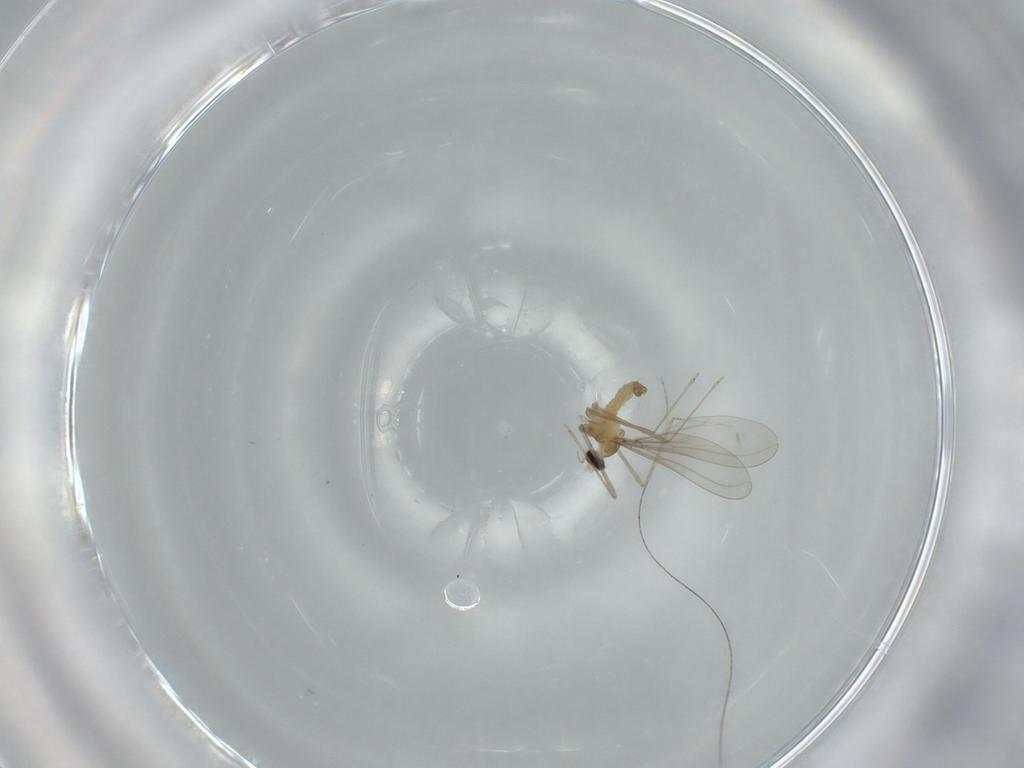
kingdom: Animalia
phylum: Arthropoda
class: Insecta
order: Diptera
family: Cecidomyiidae
